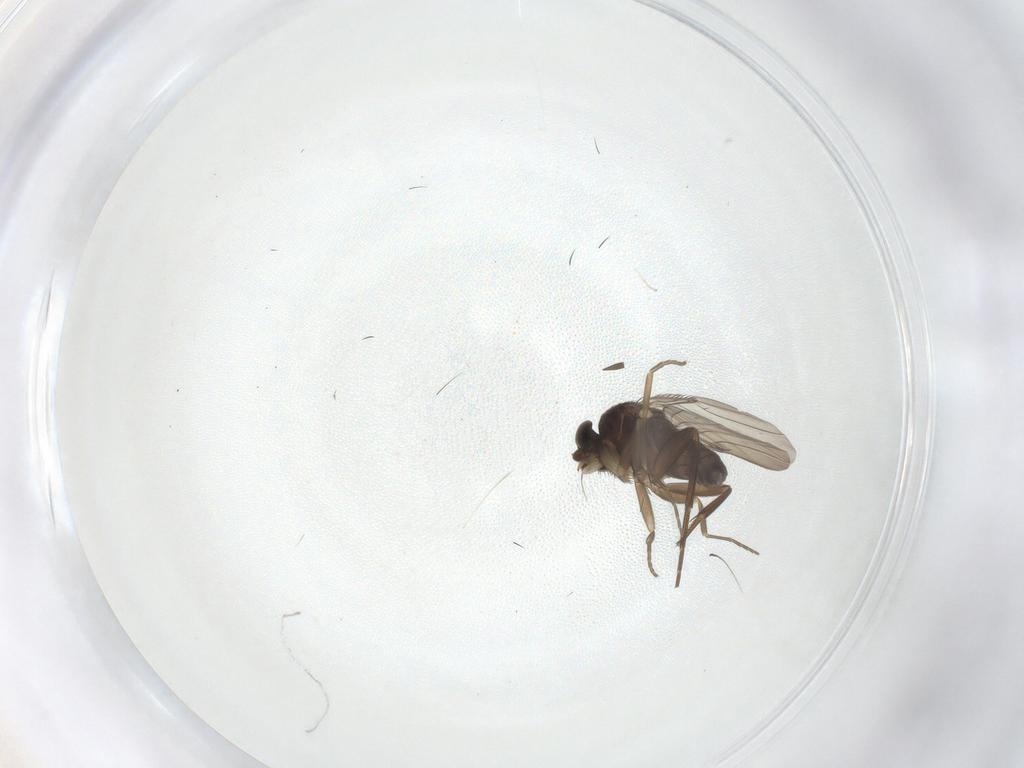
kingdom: Animalia
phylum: Arthropoda
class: Insecta
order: Diptera
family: Phoridae
